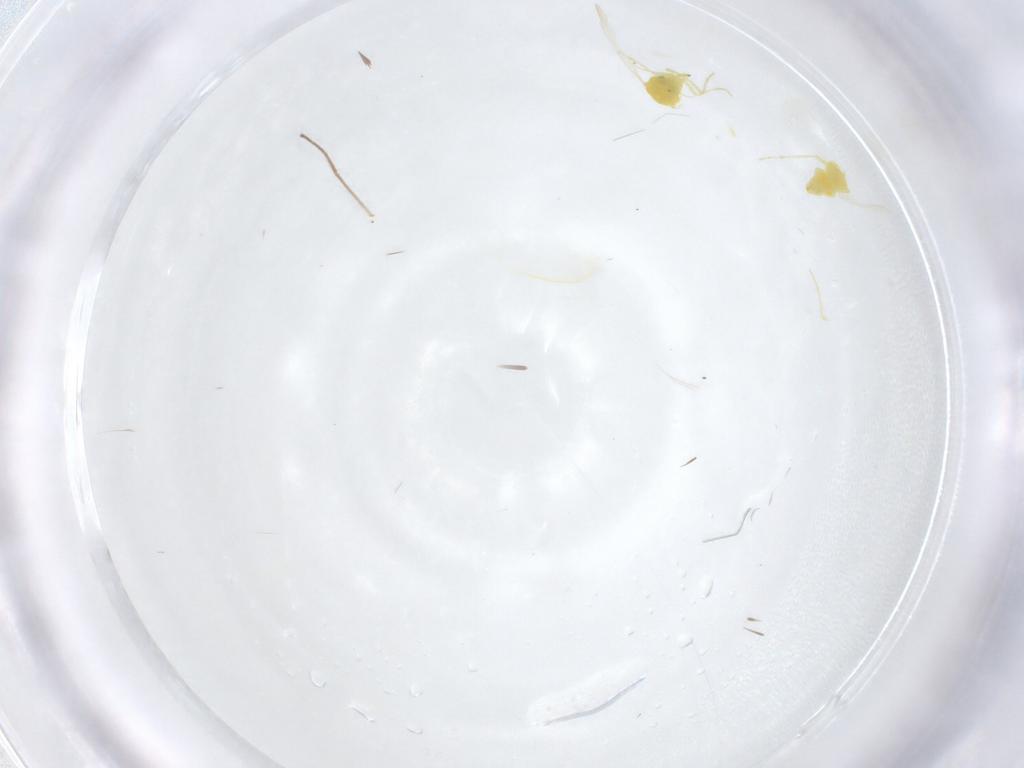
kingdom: Animalia
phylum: Arthropoda
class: Insecta
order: Diptera
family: Chironomidae
